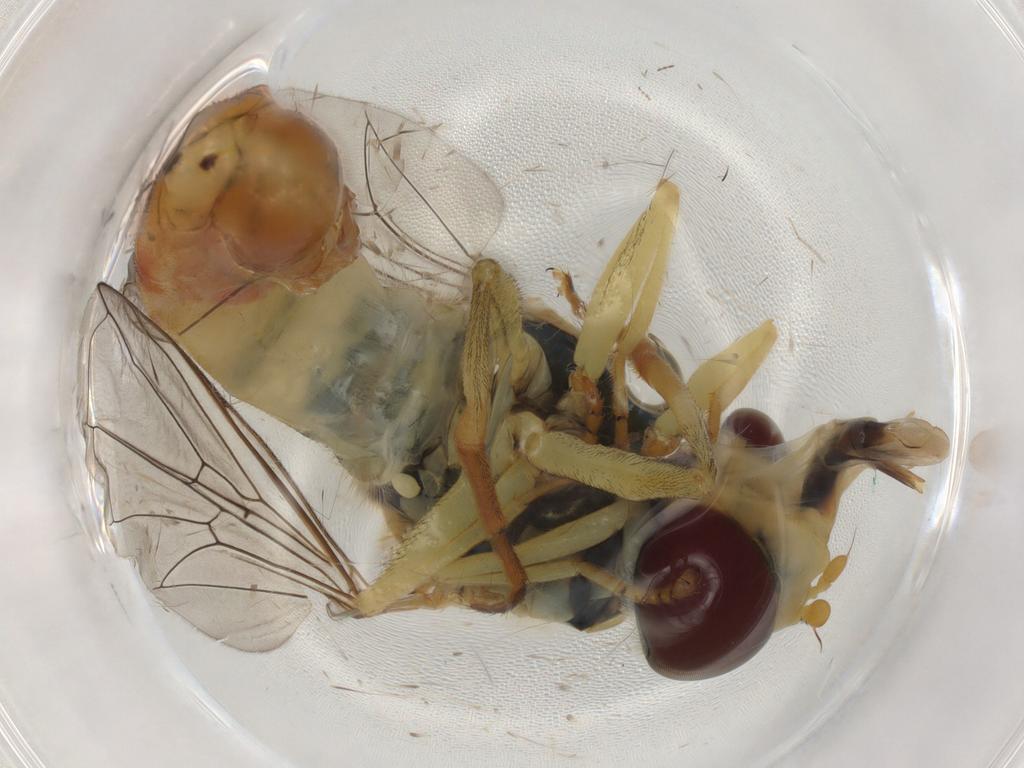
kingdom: Animalia
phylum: Arthropoda
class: Insecta
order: Diptera
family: Syrphidae
